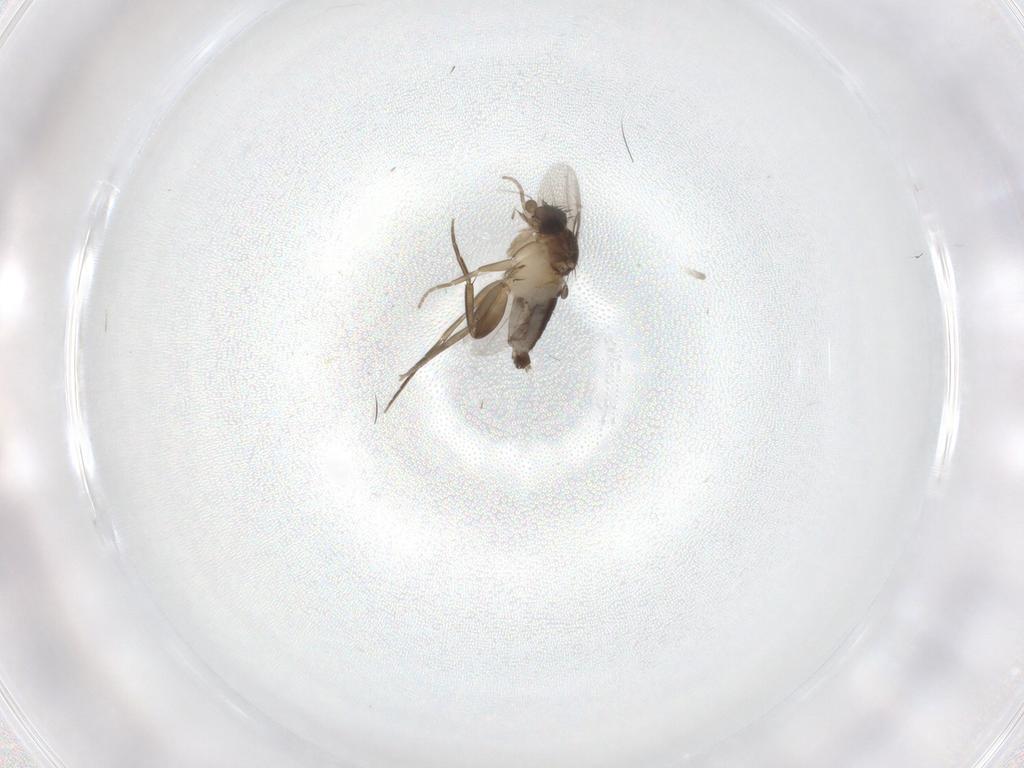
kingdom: Animalia
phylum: Arthropoda
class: Insecta
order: Diptera
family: Phoridae
